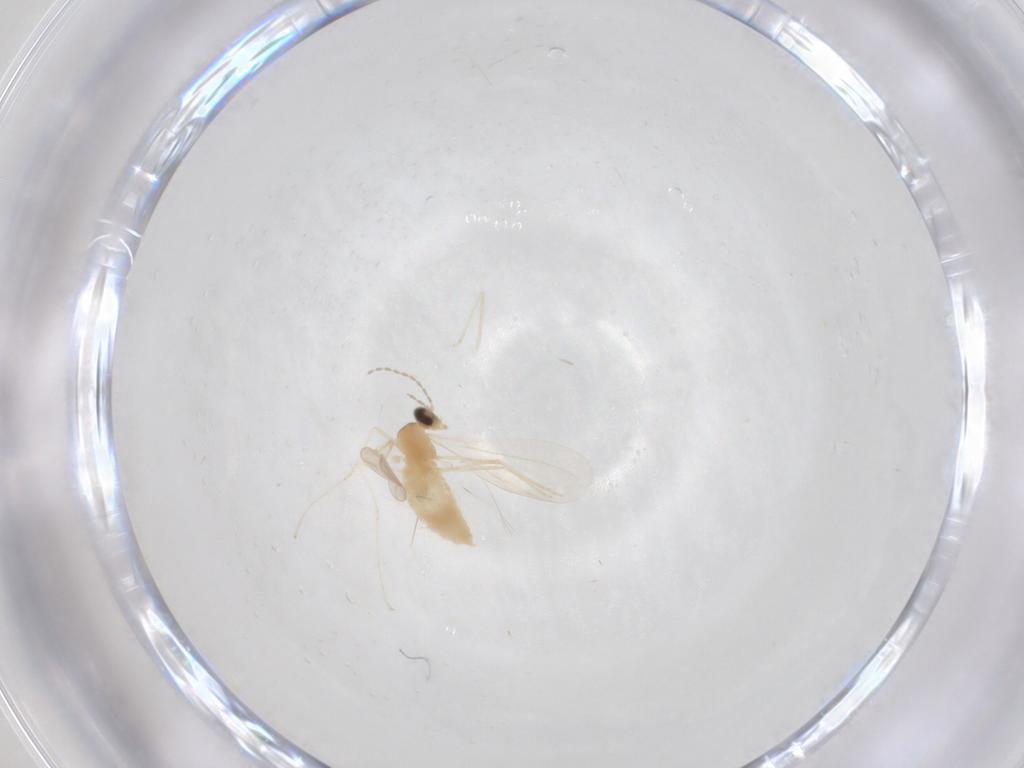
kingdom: Animalia
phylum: Arthropoda
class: Insecta
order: Diptera
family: Cecidomyiidae
